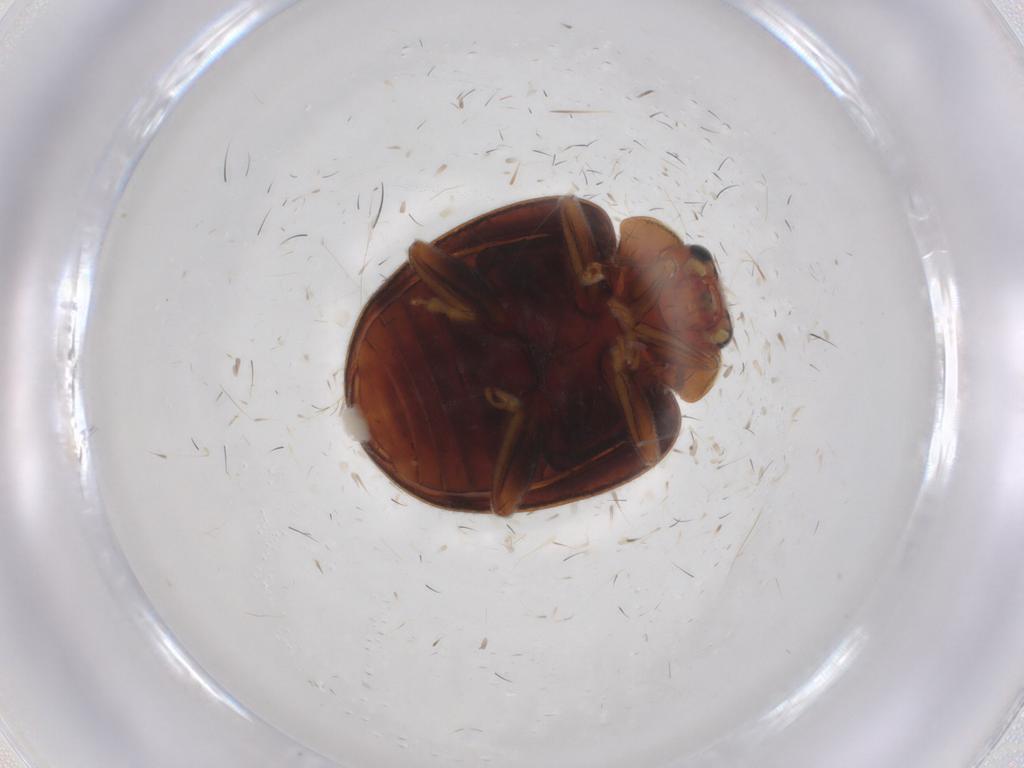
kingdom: Animalia
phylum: Arthropoda
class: Insecta
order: Coleoptera
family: Coccinellidae
